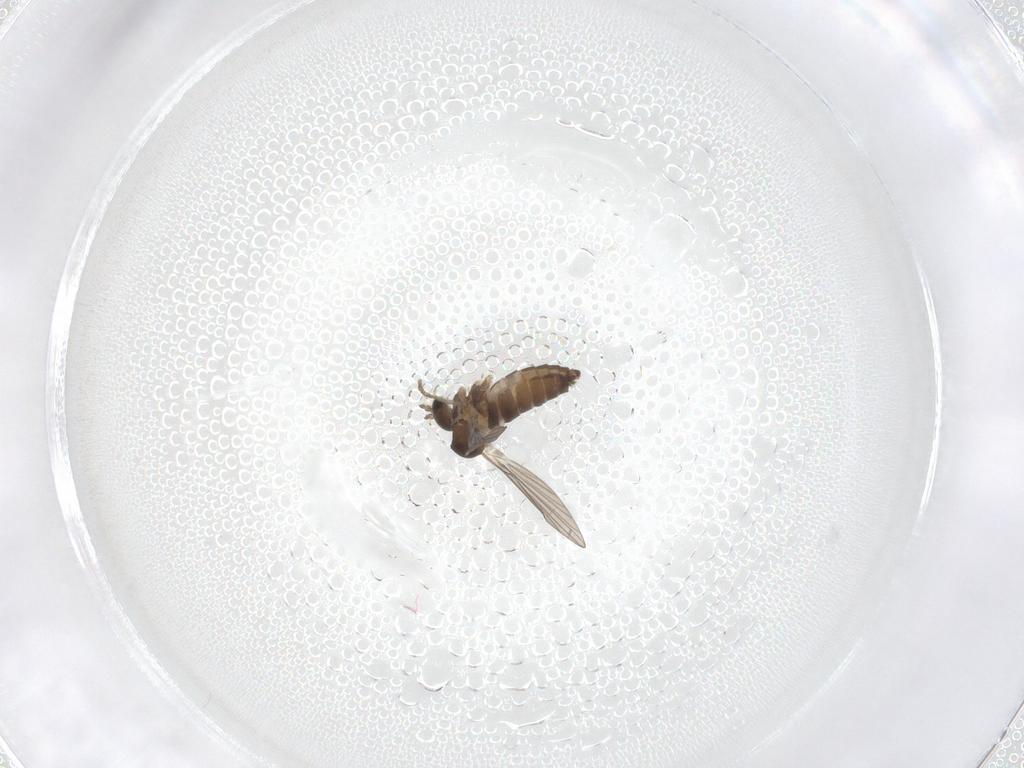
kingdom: Animalia
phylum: Arthropoda
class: Insecta
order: Diptera
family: Psychodidae
